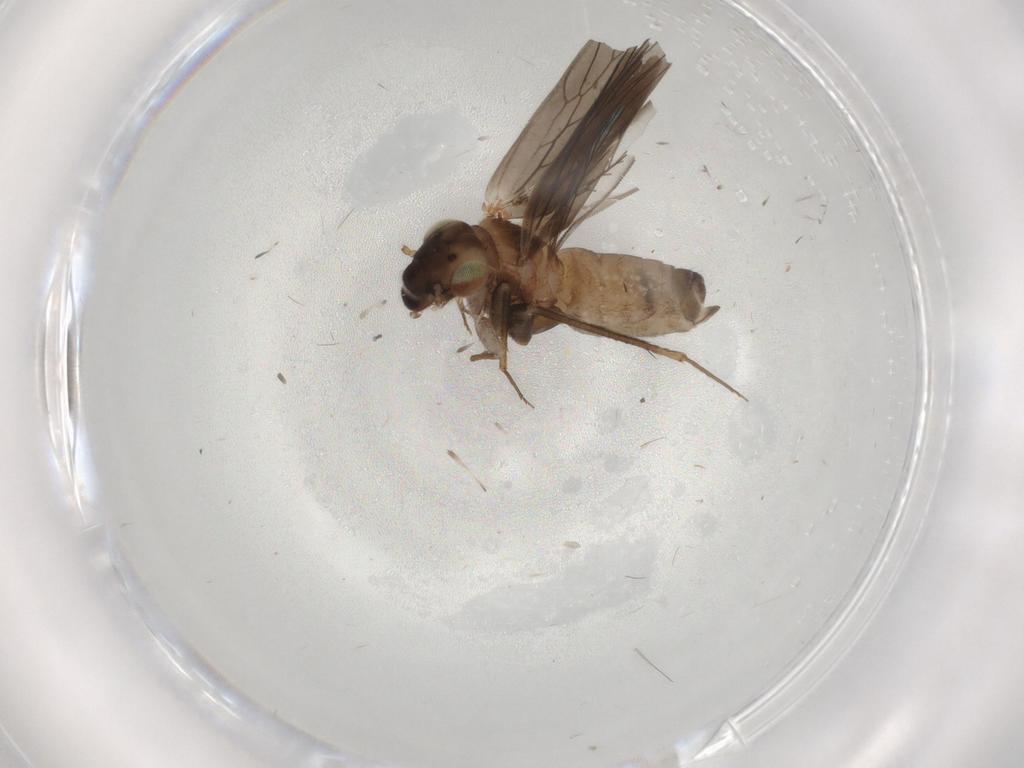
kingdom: Animalia
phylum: Arthropoda
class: Insecta
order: Psocodea
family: Lepidopsocidae
